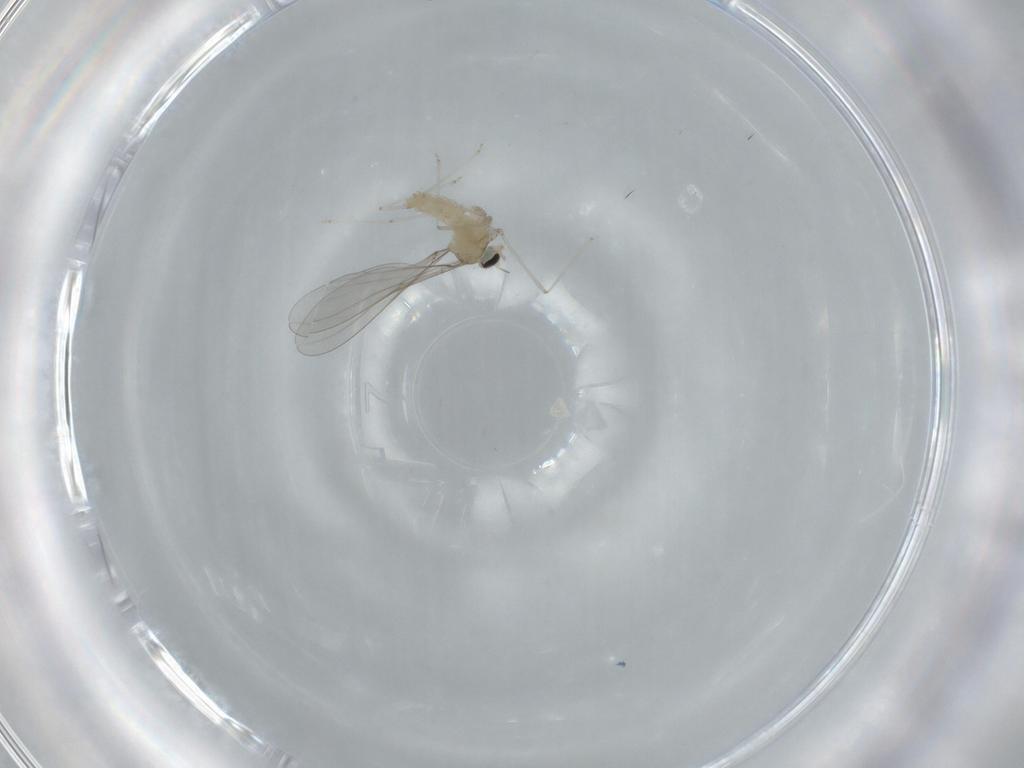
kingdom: Animalia
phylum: Arthropoda
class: Insecta
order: Diptera
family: Cecidomyiidae
